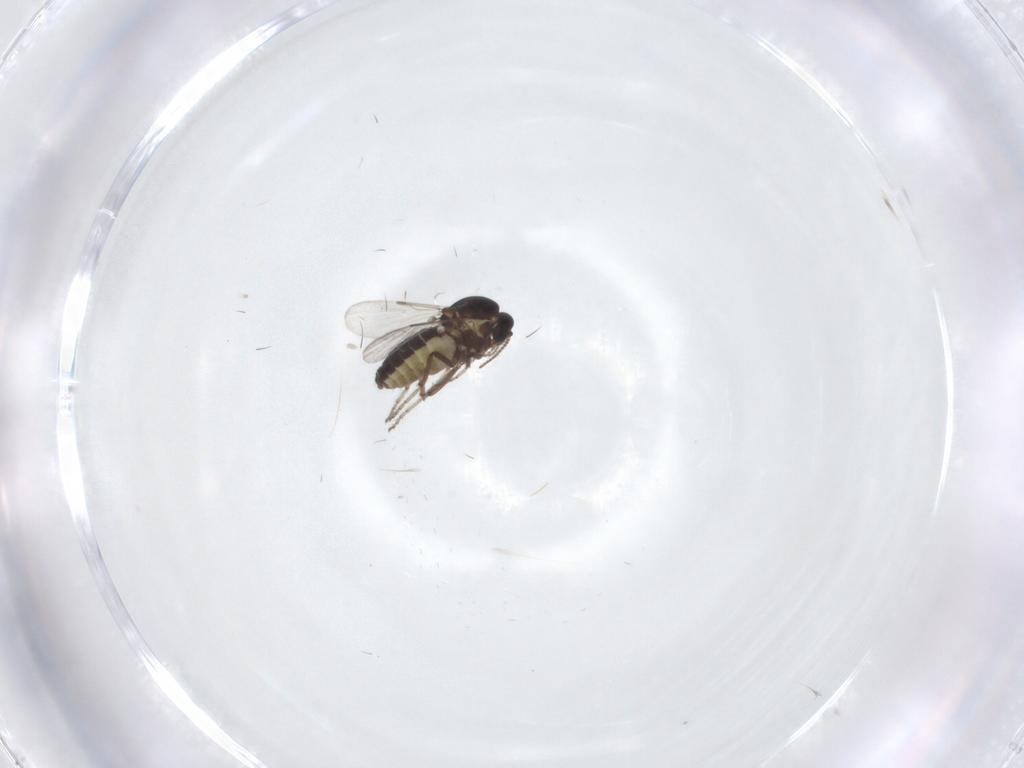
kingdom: Animalia
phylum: Arthropoda
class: Insecta
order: Diptera
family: Ceratopogonidae
